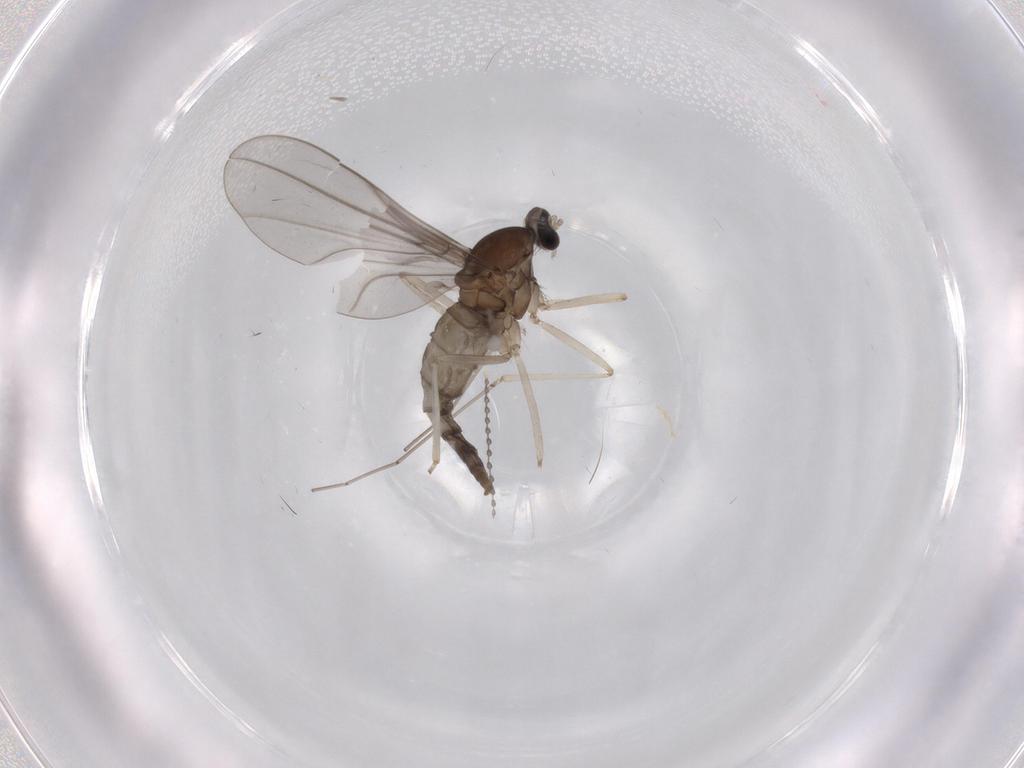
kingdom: Animalia
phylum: Arthropoda
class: Insecta
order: Diptera
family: Cecidomyiidae
